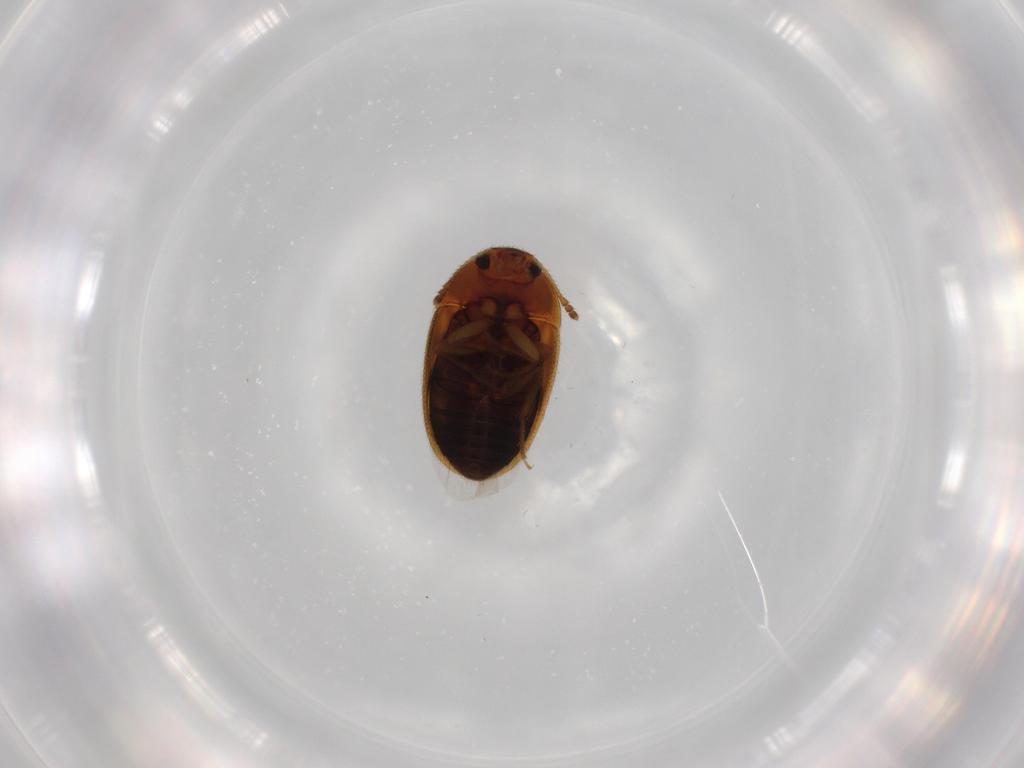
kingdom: Animalia
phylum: Arthropoda
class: Insecta
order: Coleoptera
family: Mycetophagidae
